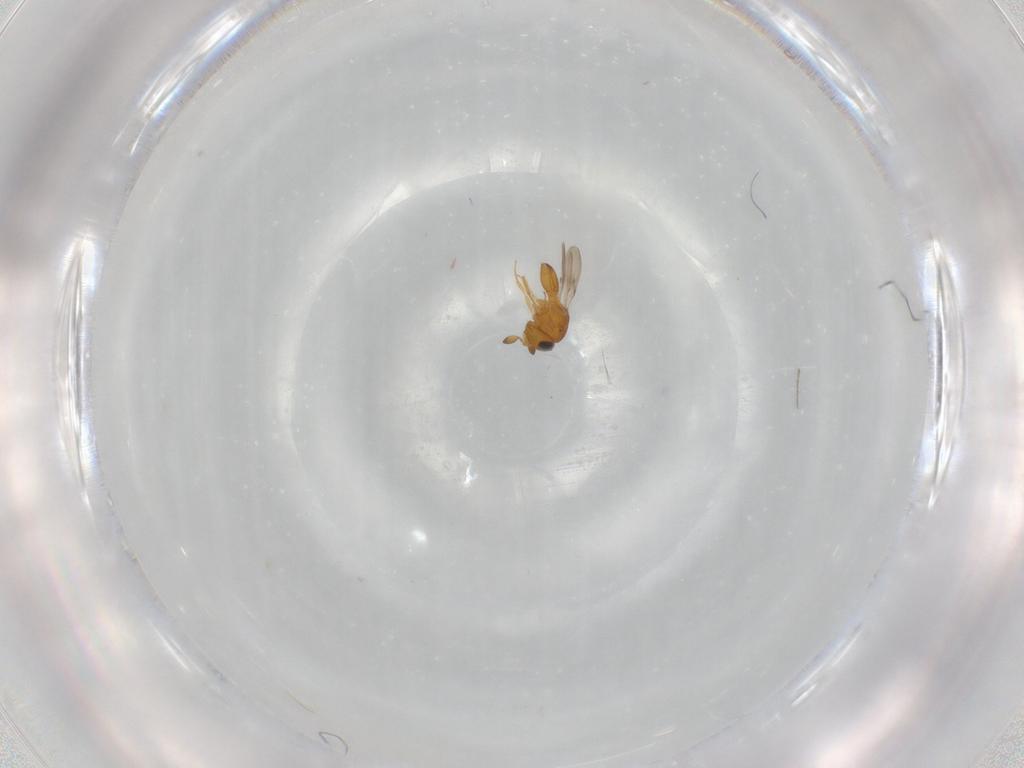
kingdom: Animalia
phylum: Arthropoda
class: Insecta
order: Hymenoptera
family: Scelionidae
